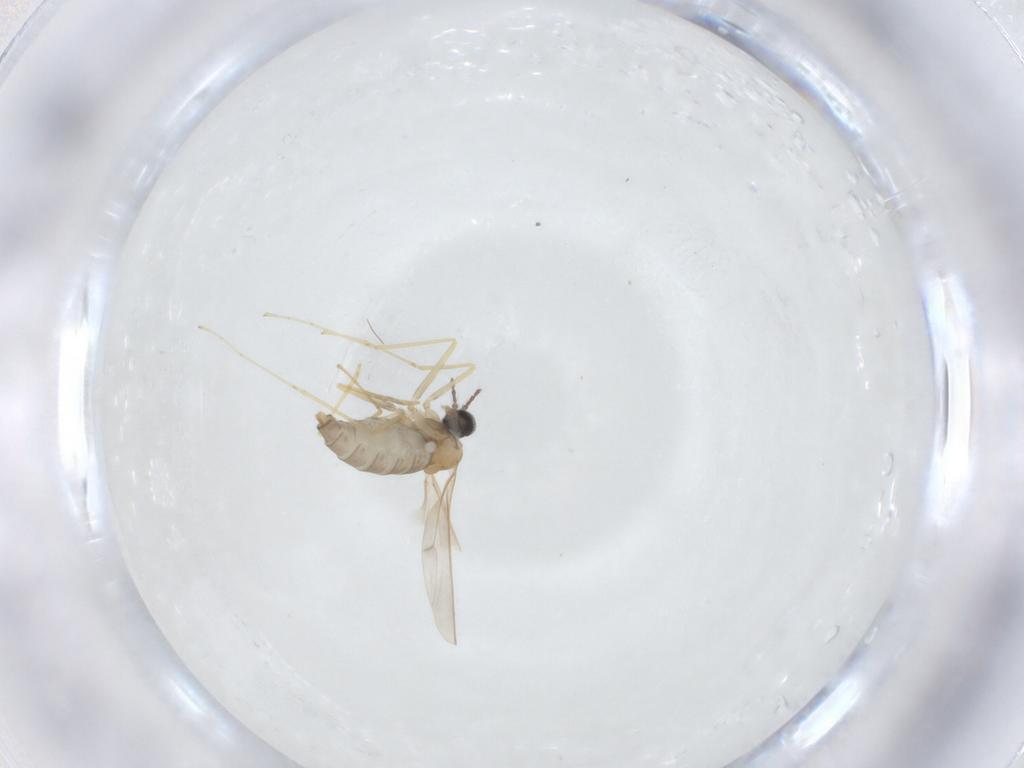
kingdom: Animalia
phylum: Arthropoda
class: Insecta
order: Diptera
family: Cecidomyiidae
